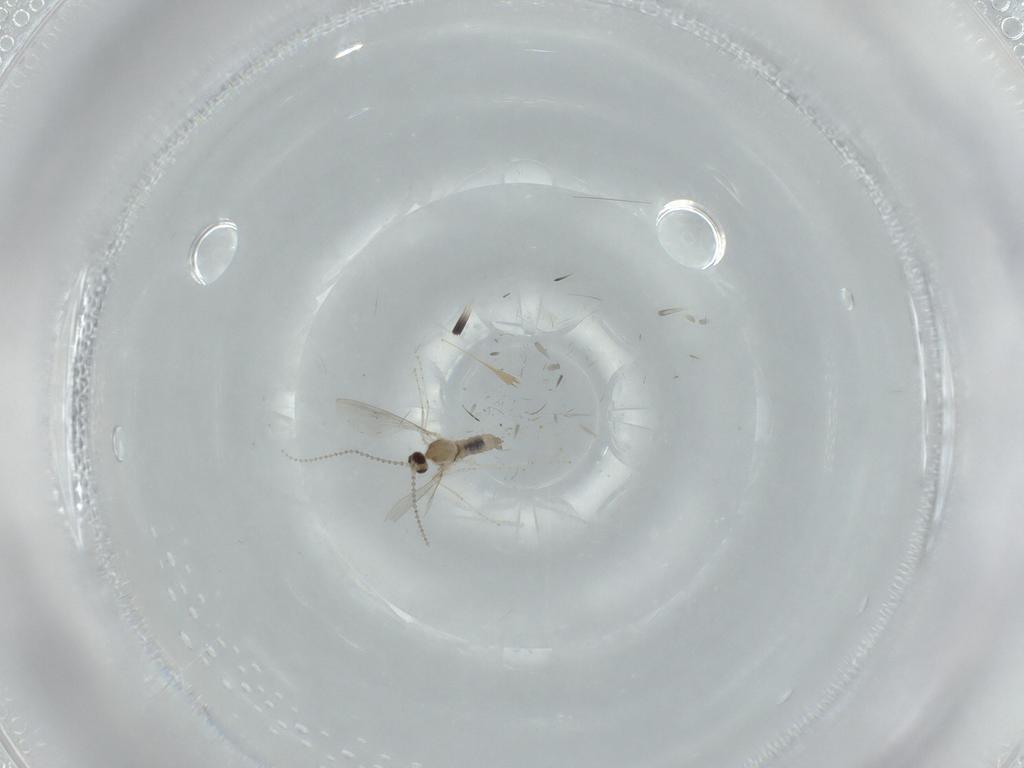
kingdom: Animalia
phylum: Arthropoda
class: Insecta
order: Diptera
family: Cecidomyiidae
